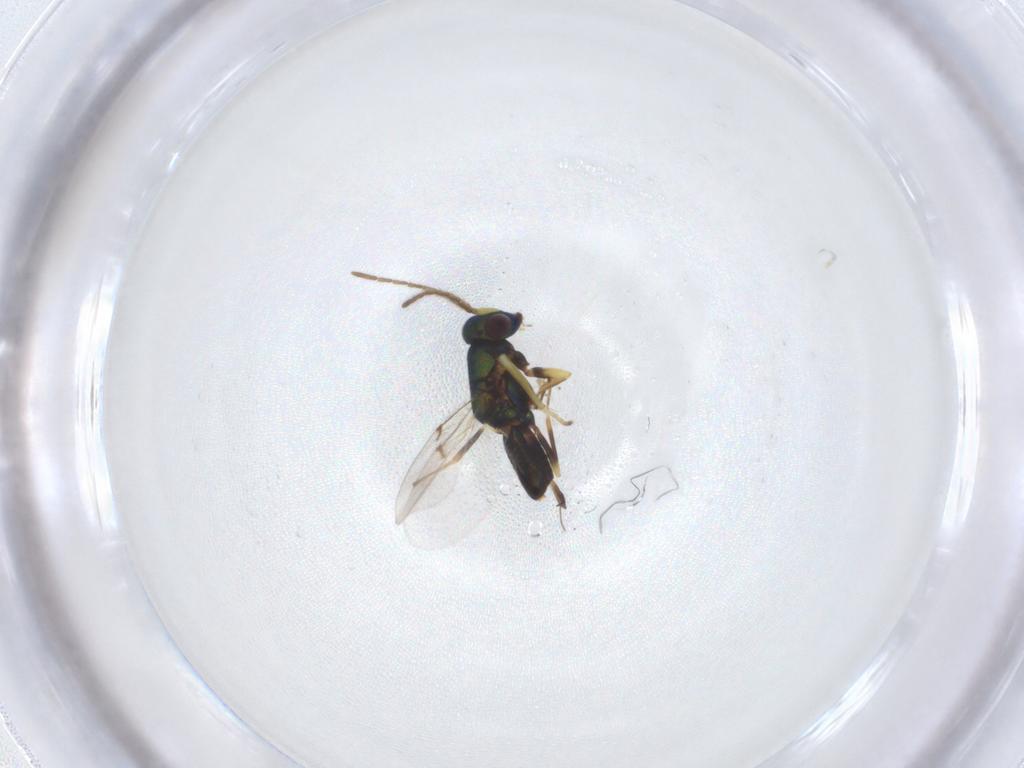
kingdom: Animalia
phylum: Arthropoda
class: Insecta
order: Hymenoptera
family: Encyrtidae
